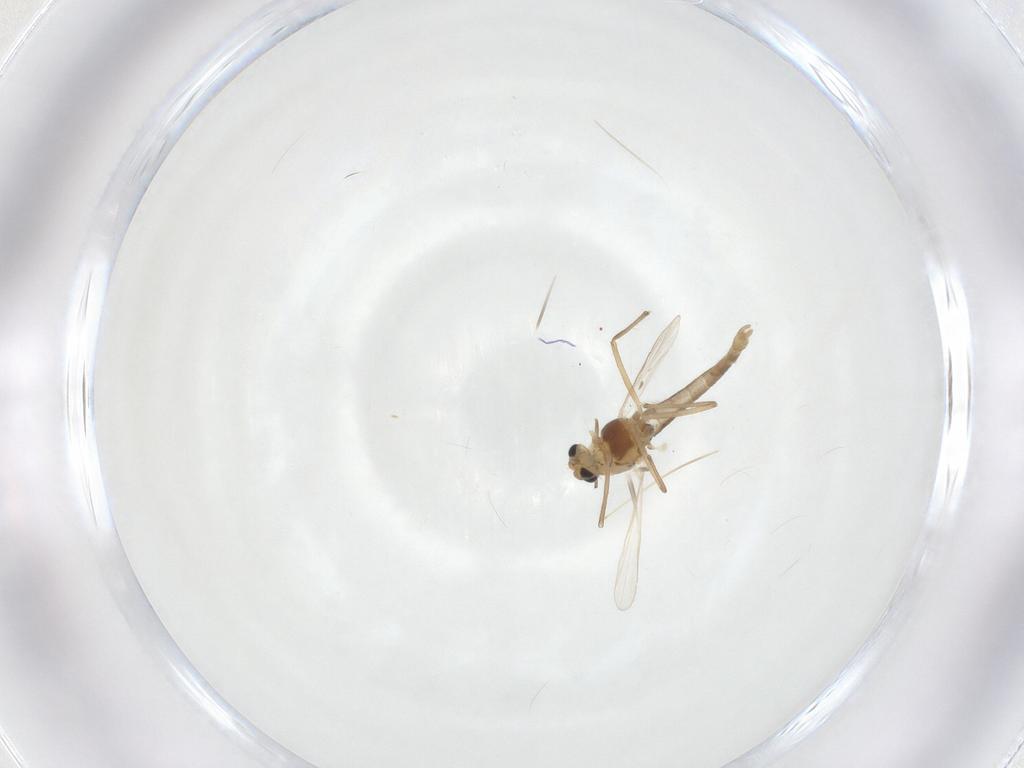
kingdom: Animalia
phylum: Arthropoda
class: Insecta
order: Diptera
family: Chironomidae
